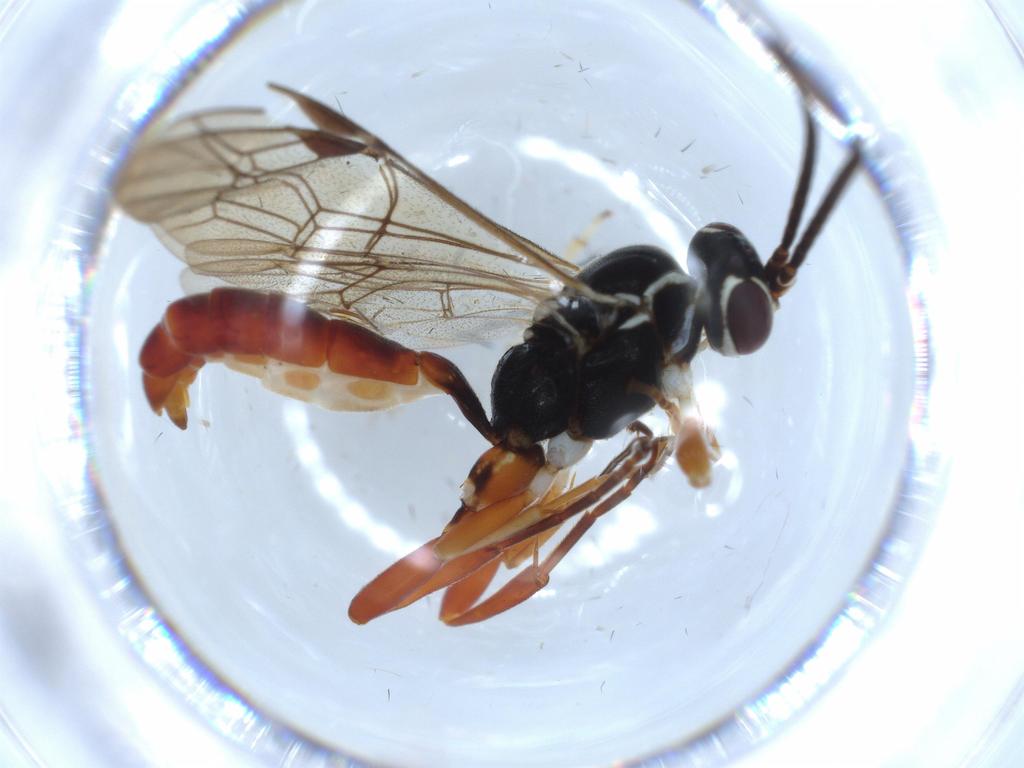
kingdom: Animalia
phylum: Arthropoda
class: Insecta
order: Hymenoptera
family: Ichneumonidae
